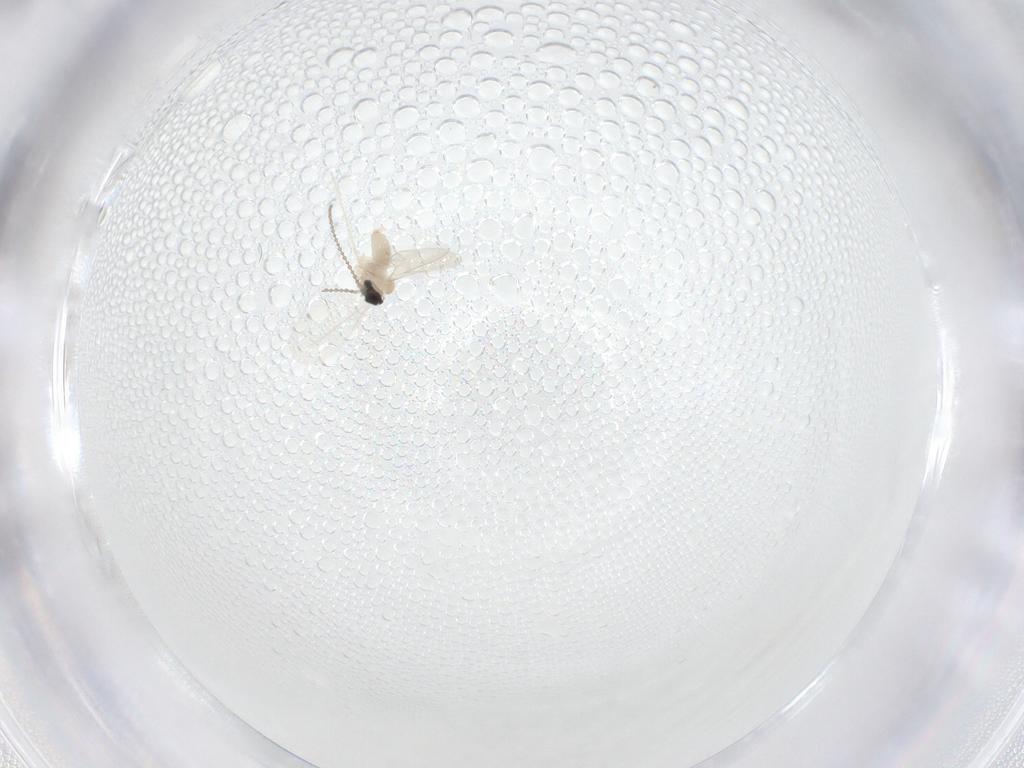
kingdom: Animalia
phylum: Arthropoda
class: Insecta
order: Diptera
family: Cecidomyiidae
